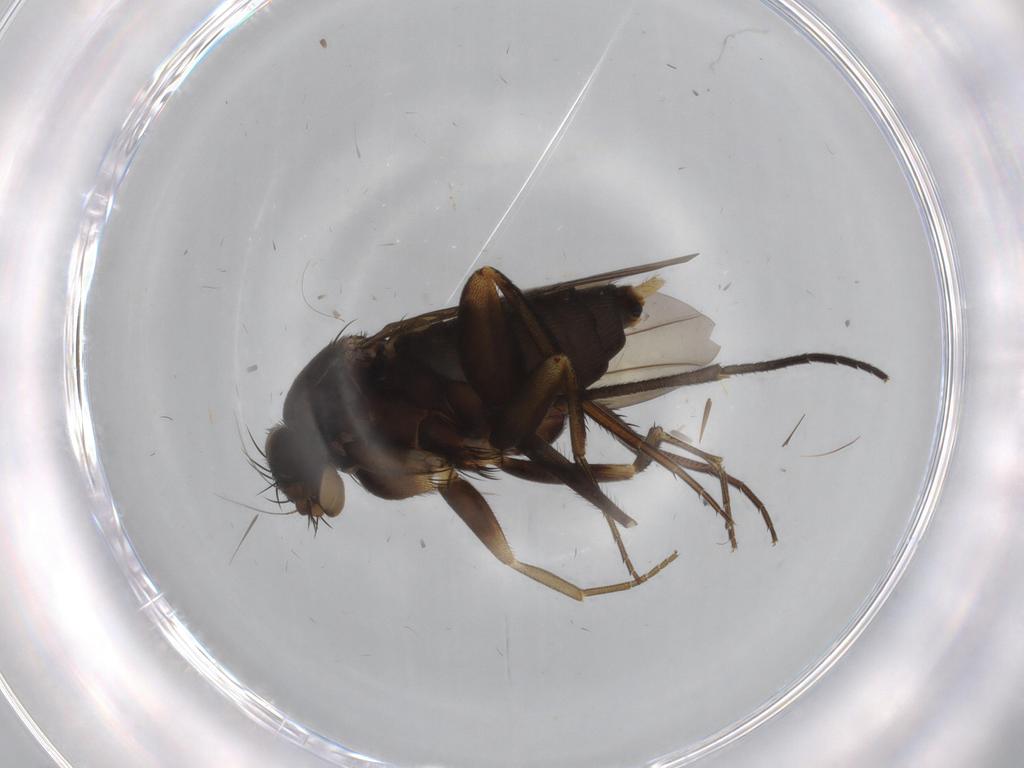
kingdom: Animalia
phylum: Arthropoda
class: Insecta
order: Diptera
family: Phoridae
